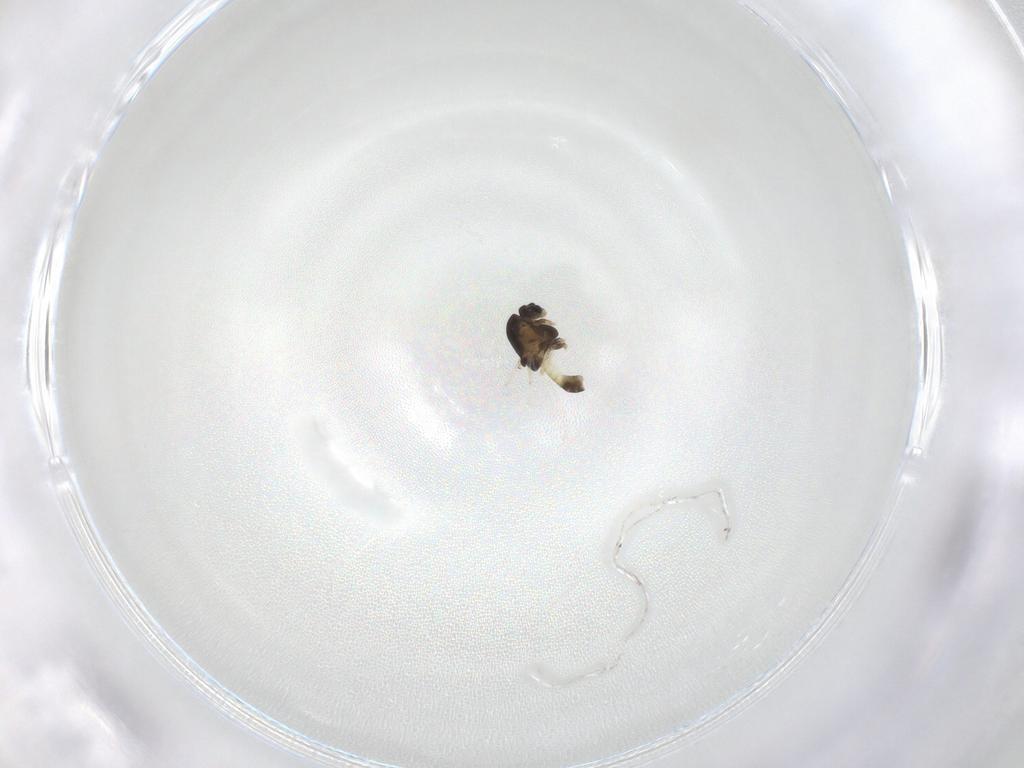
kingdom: Animalia
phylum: Arthropoda
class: Insecta
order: Diptera
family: Chironomidae
